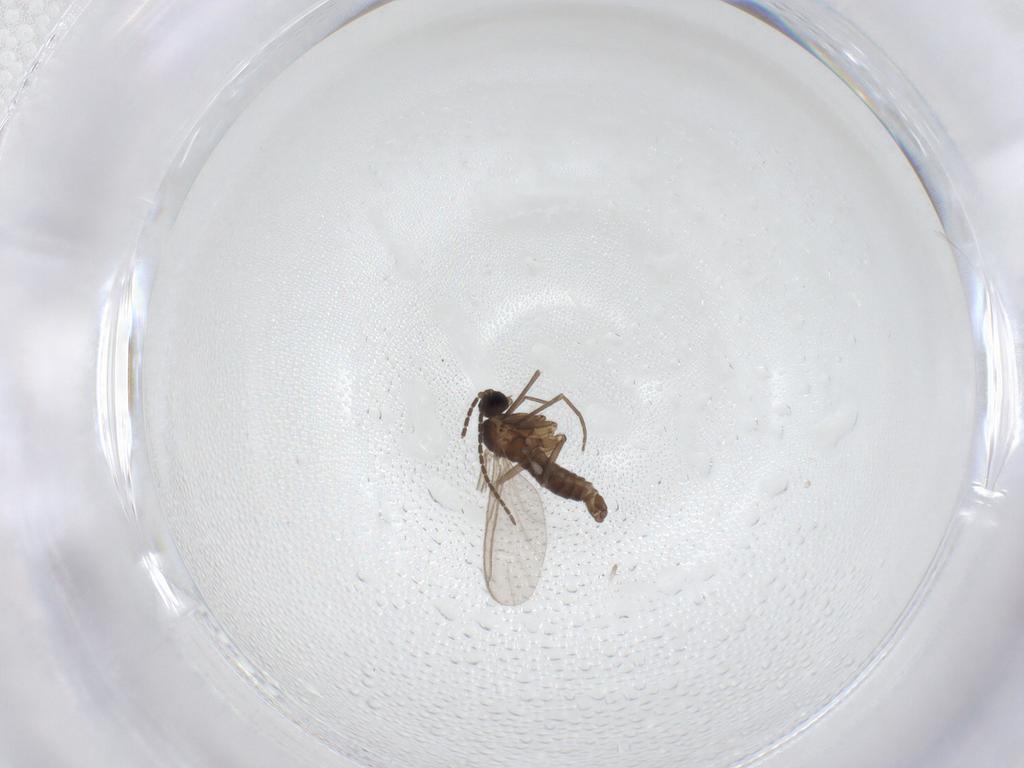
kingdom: Animalia
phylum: Arthropoda
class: Insecta
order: Diptera
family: Sciaridae
